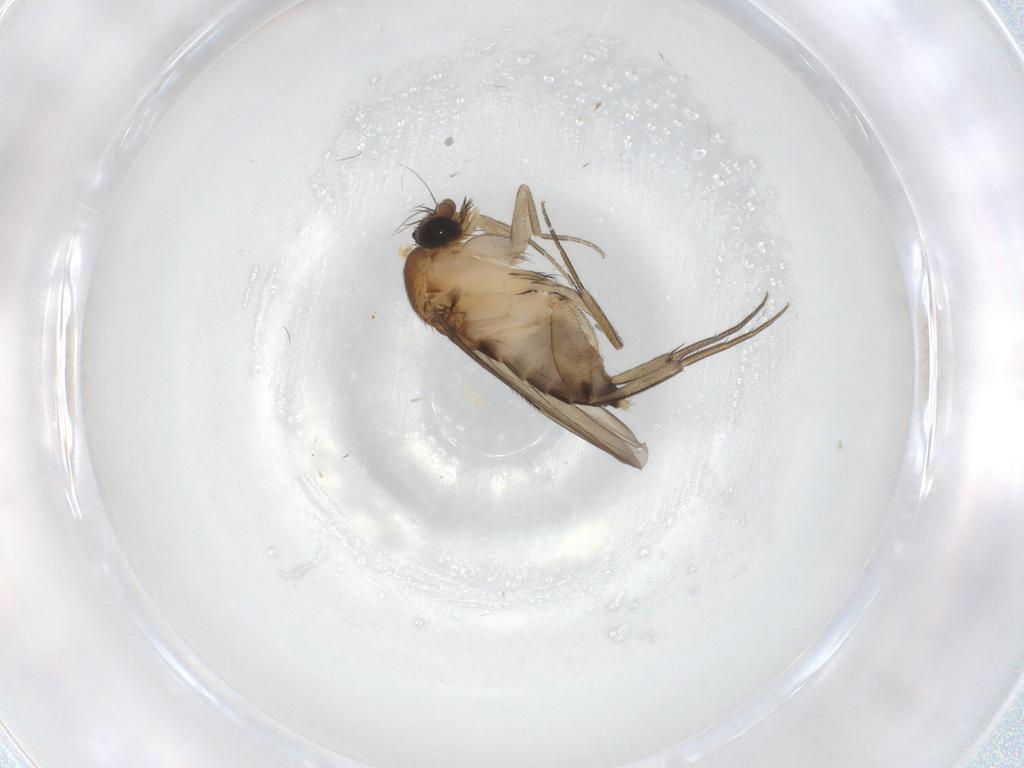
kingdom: Animalia
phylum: Arthropoda
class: Insecta
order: Diptera
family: Phoridae
